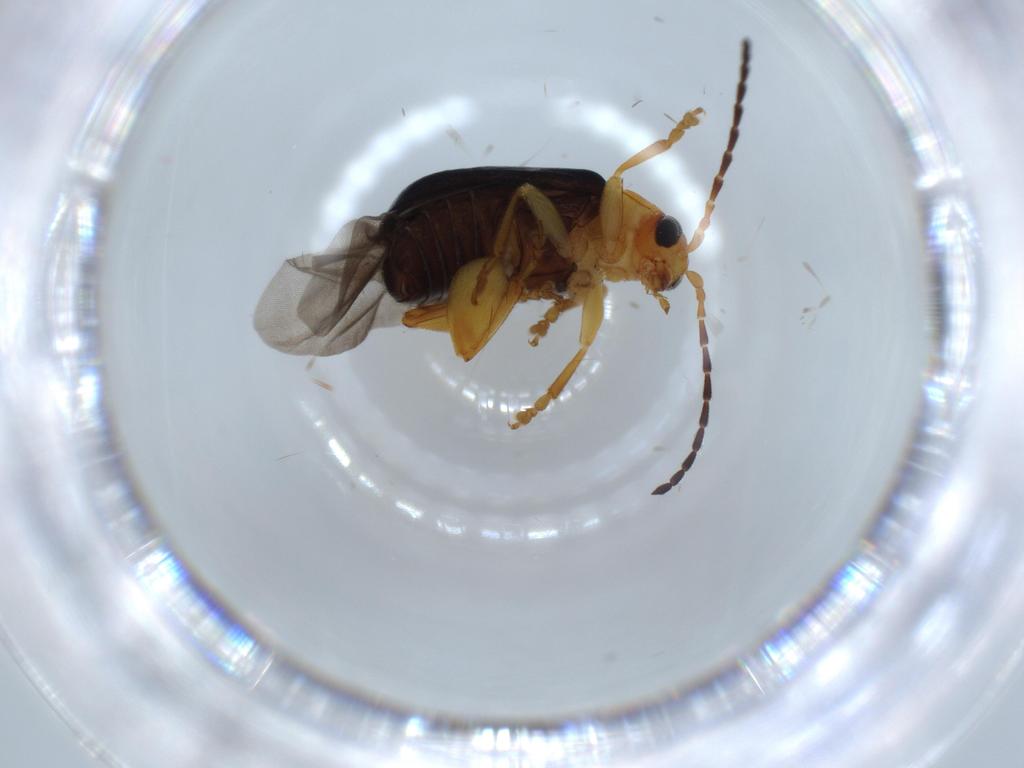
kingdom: Animalia
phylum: Arthropoda
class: Insecta
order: Coleoptera
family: Chrysomelidae
